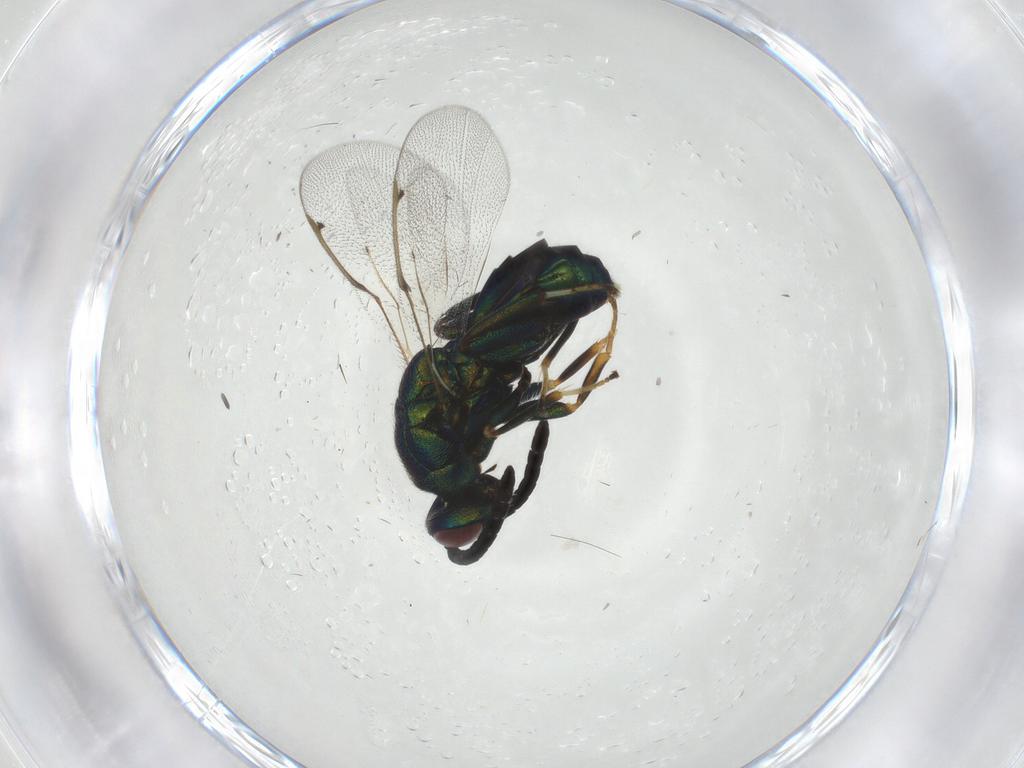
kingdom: Animalia
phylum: Arthropoda
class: Insecta
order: Hymenoptera
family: Torymidae
